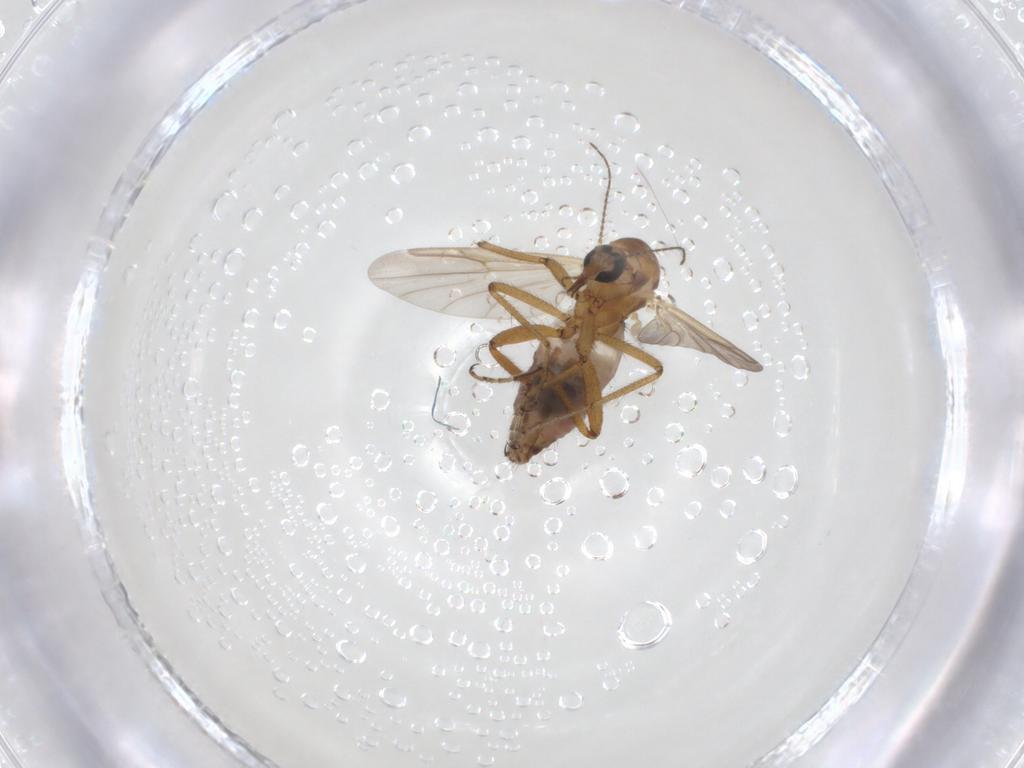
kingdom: Animalia
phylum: Arthropoda
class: Insecta
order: Diptera
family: Ceratopogonidae
